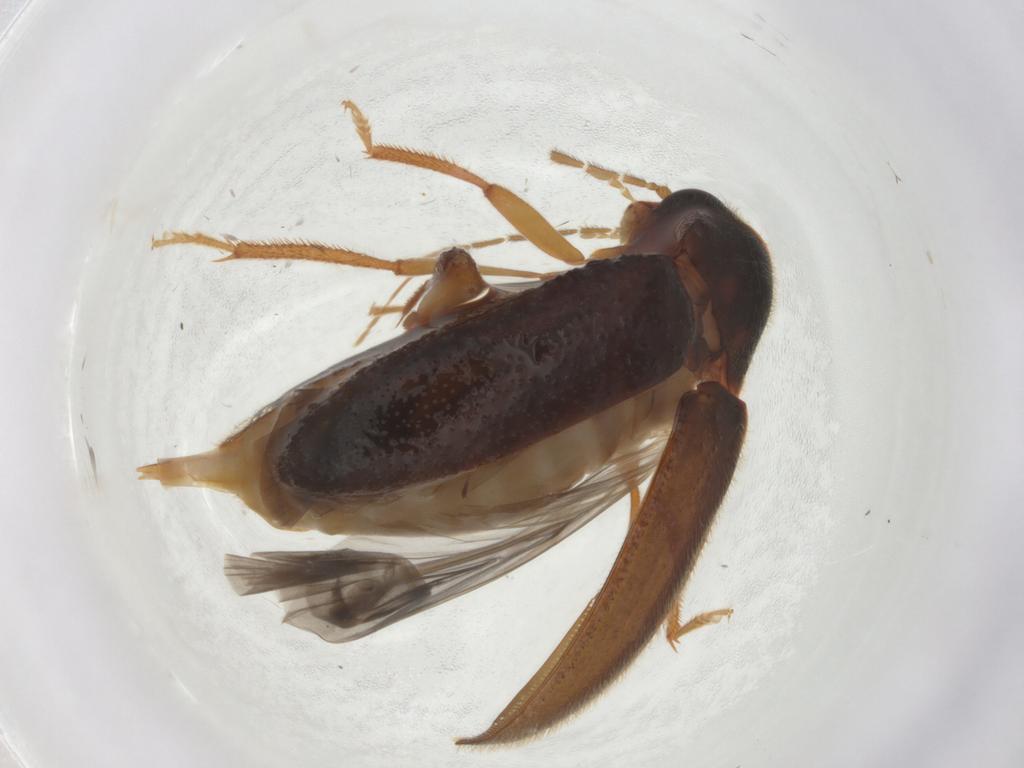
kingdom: Animalia
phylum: Arthropoda
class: Insecta
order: Coleoptera
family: Ptilodactylidae
